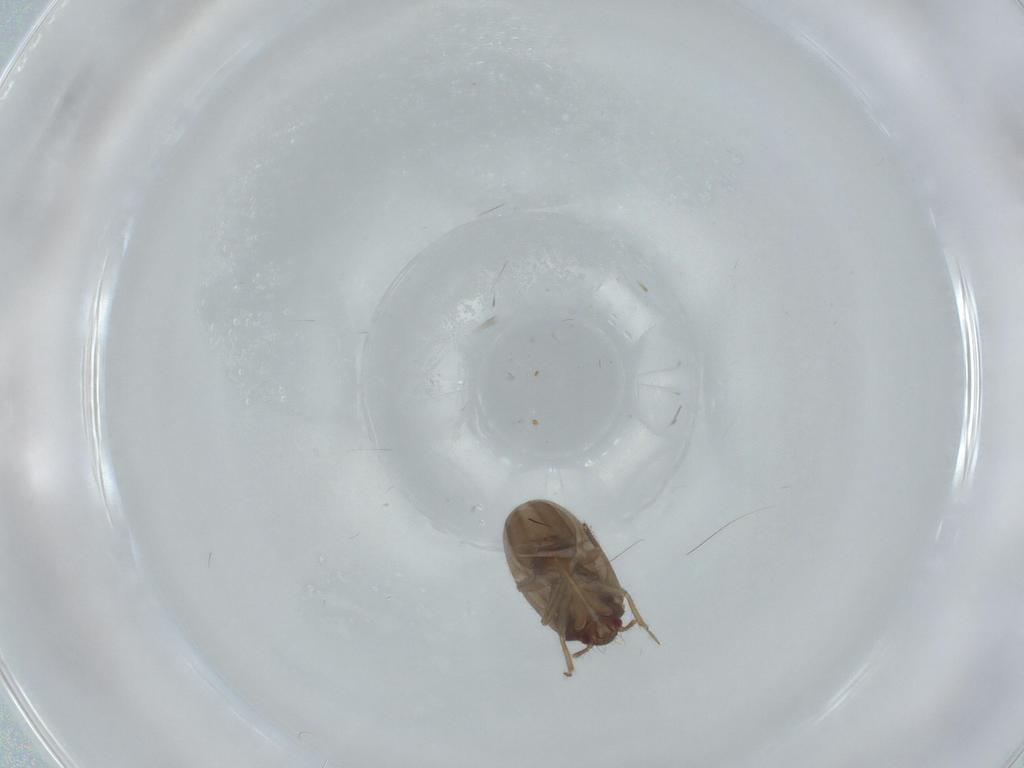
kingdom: Animalia
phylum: Arthropoda
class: Insecta
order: Hemiptera
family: Ceratocombidae
